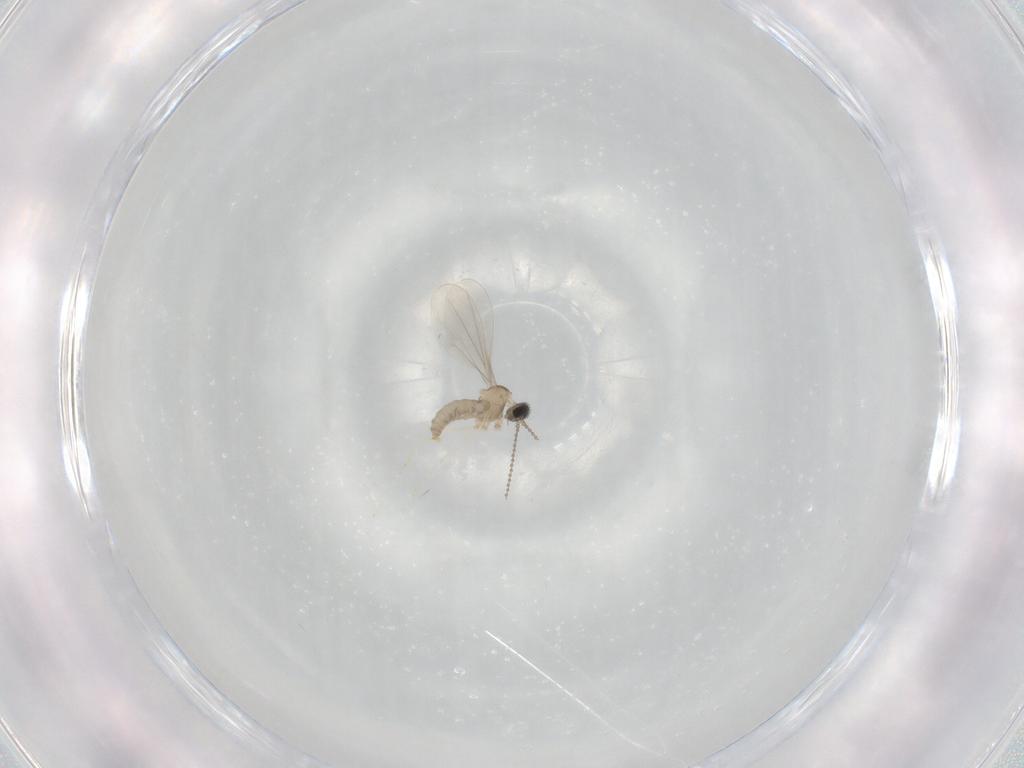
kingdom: Animalia
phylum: Arthropoda
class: Insecta
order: Diptera
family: Cecidomyiidae
